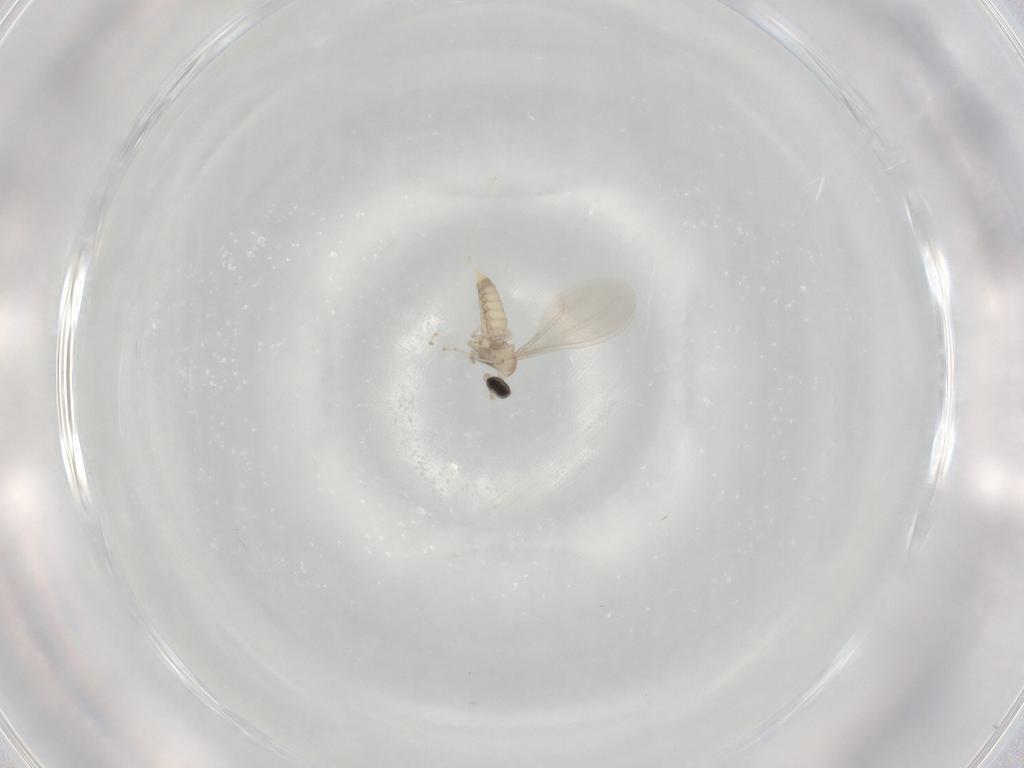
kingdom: Animalia
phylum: Arthropoda
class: Insecta
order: Diptera
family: Cecidomyiidae
